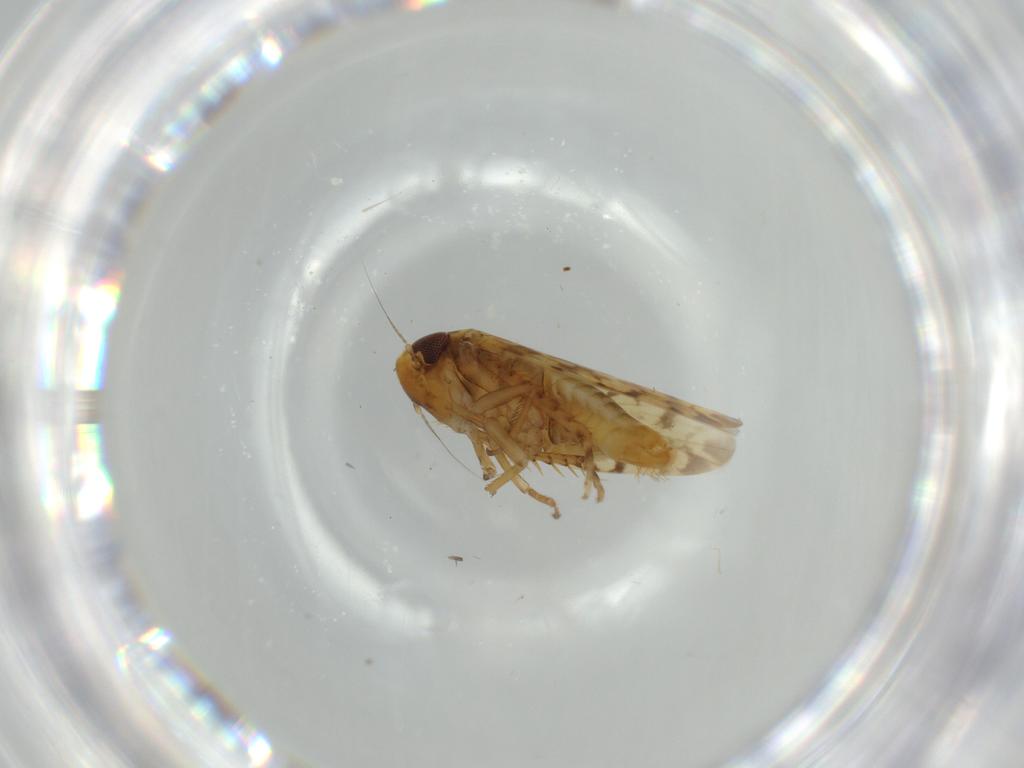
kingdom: Animalia
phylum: Arthropoda
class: Insecta
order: Hemiptera
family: Cicadellidae
